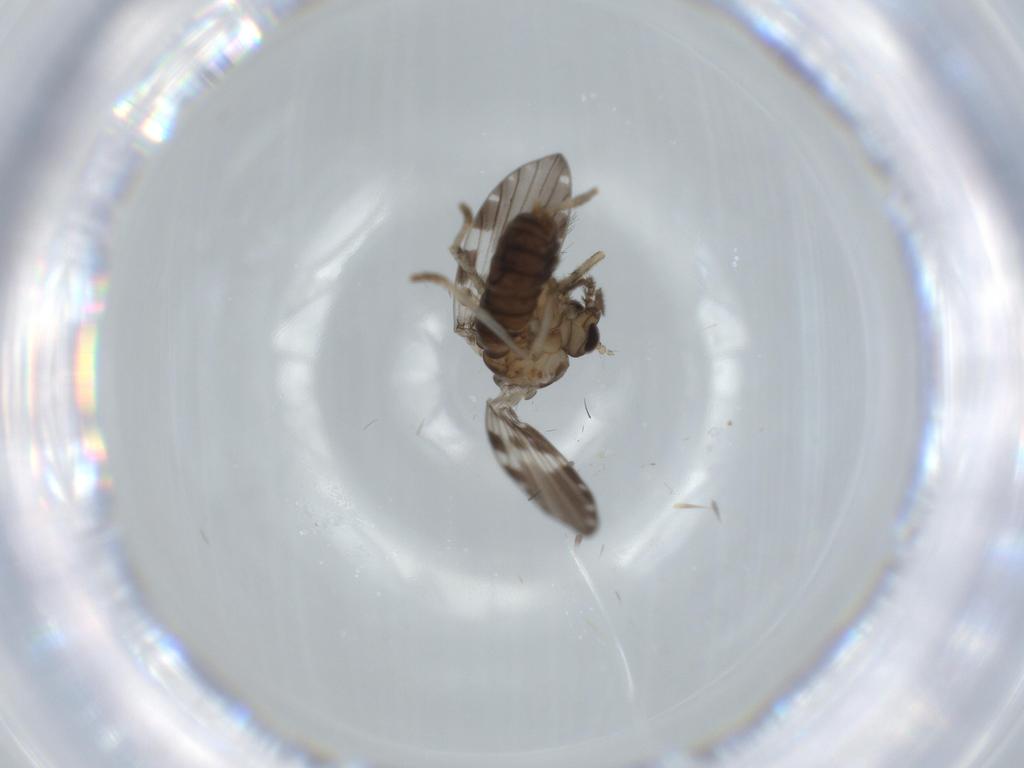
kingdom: Animalia
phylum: Arthropoda
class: Insecta
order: Diptera
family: Psychodidae
